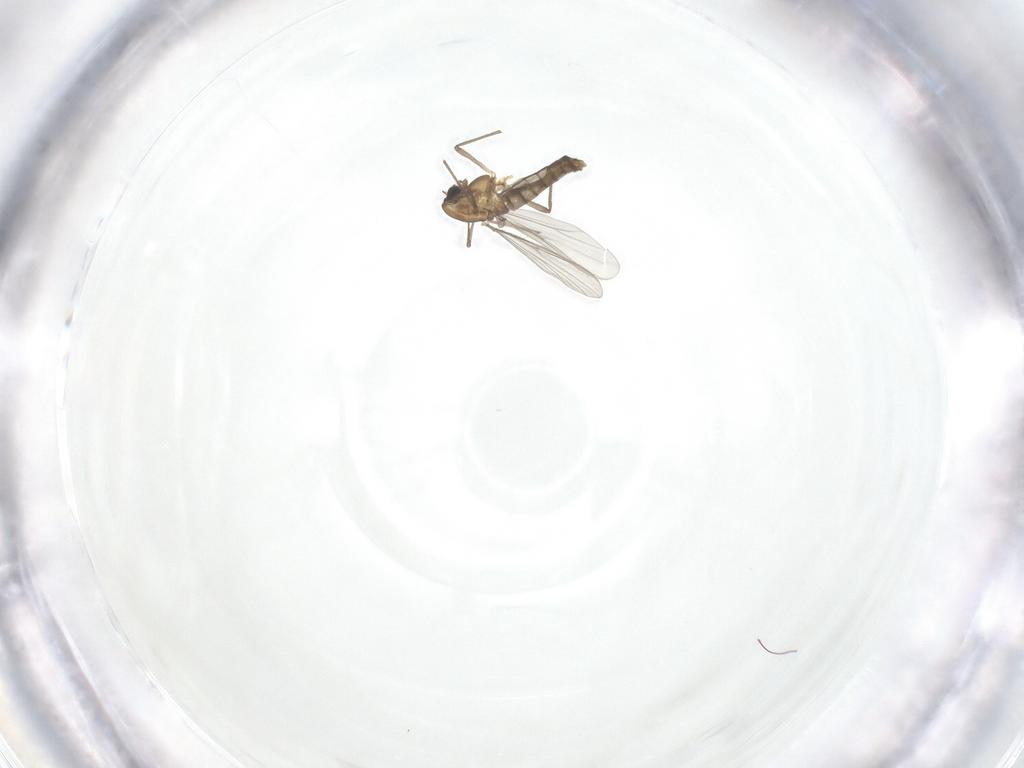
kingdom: Animalia
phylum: Arthropoda
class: Insecta
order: Diptera
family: Chironomidae
